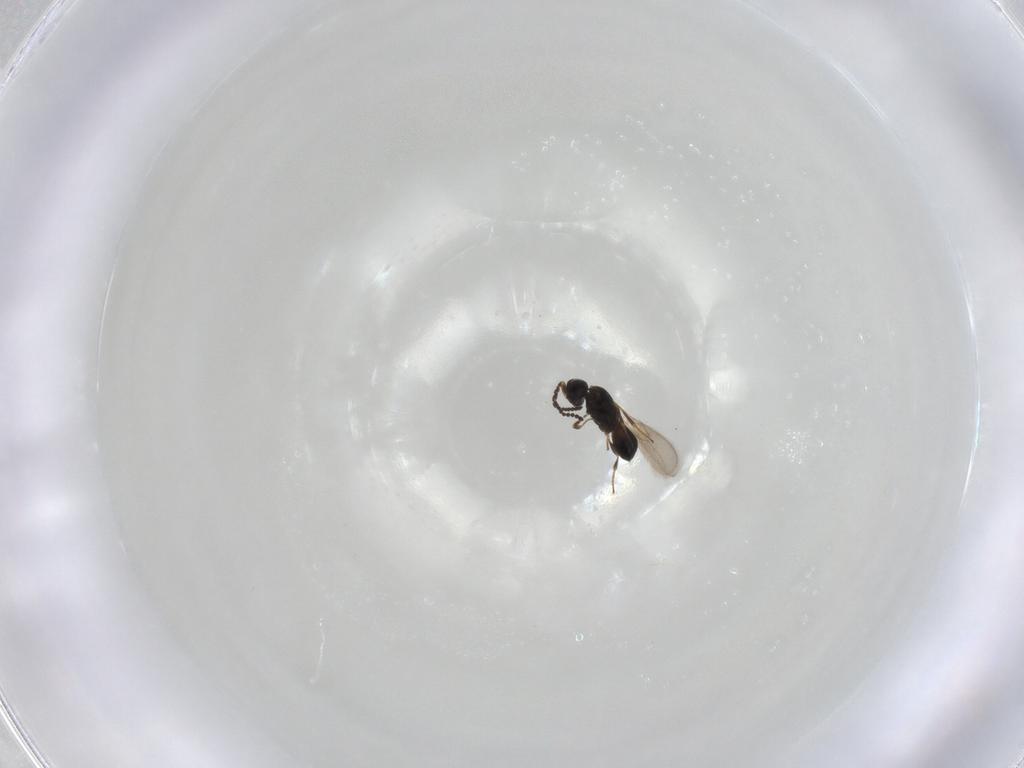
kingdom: Animalia
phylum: Arthropoda
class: Insecta
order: Hymenoptera
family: Scelionidae
